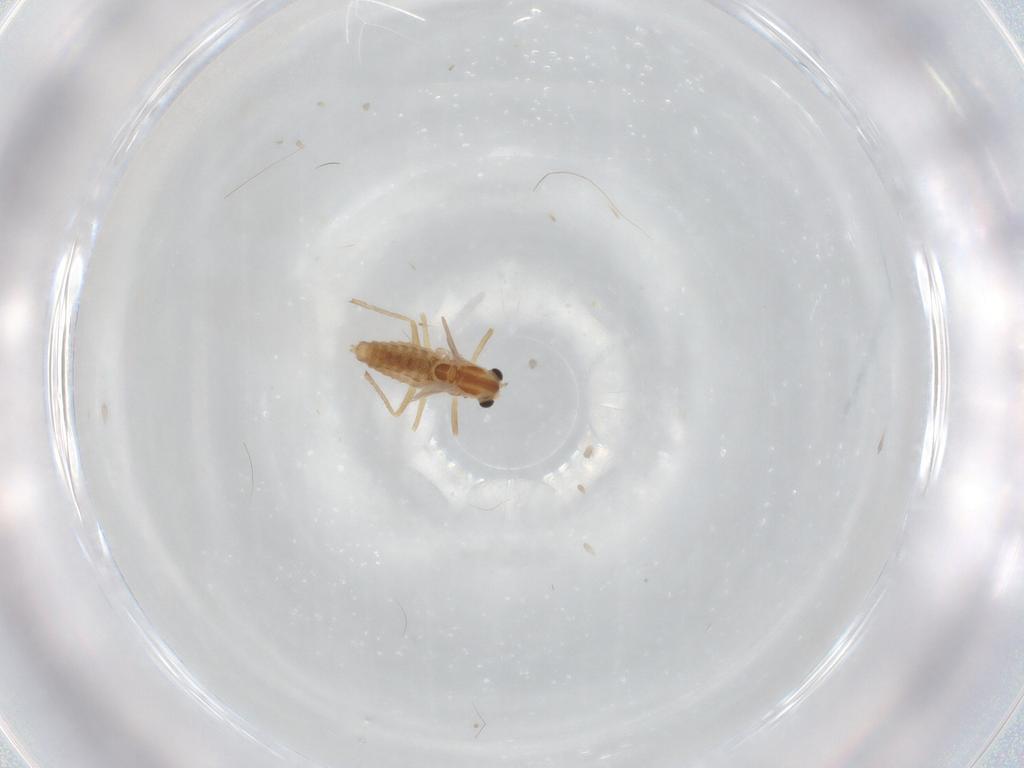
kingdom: Animalia
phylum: Arthropoda
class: Insecta
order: Diptera
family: Chironomidae
